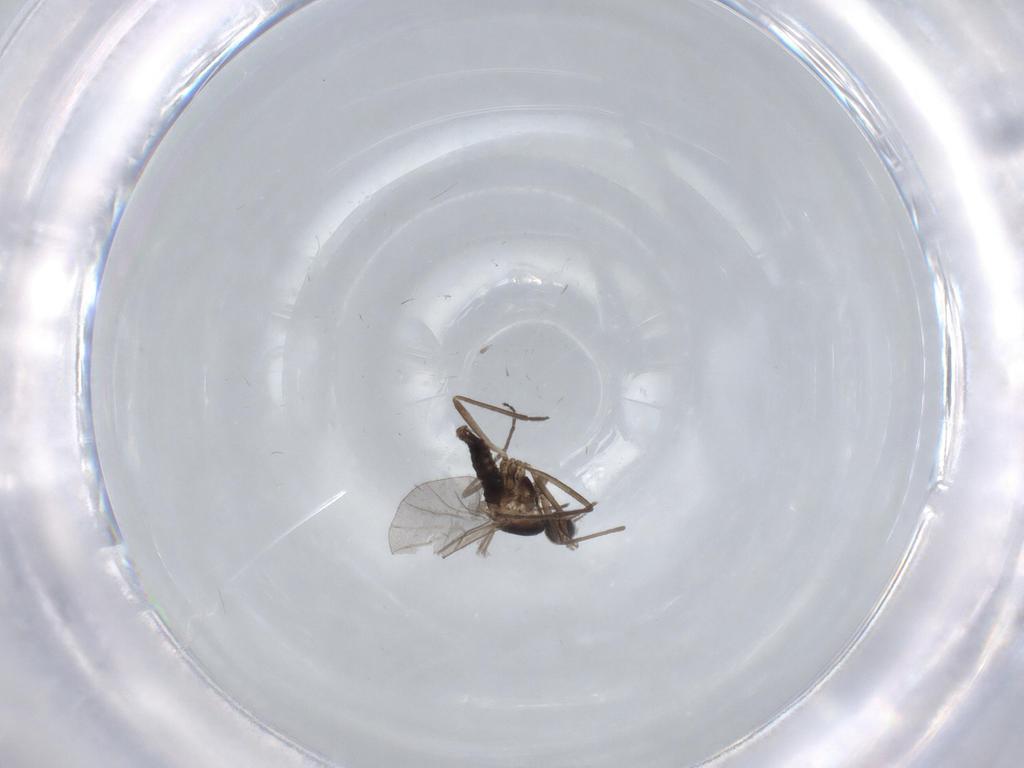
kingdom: Animalia
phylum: Arthropoda
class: Insecta
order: Diptera
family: Cecidomyiidae
